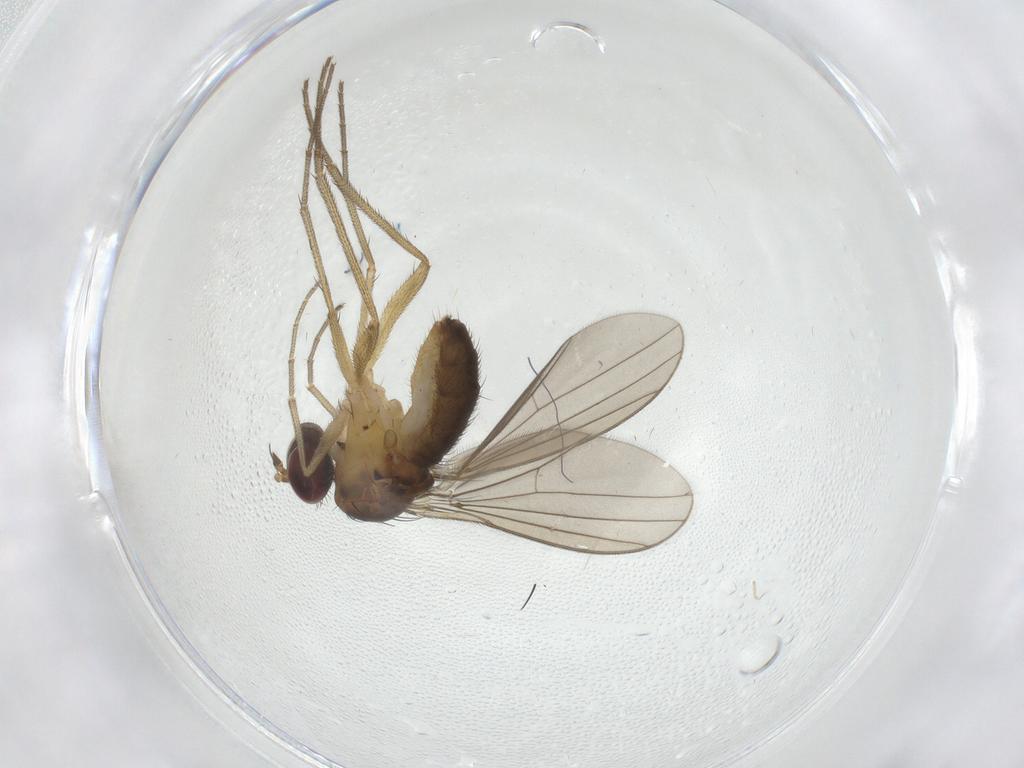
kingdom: Animalia
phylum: Arthropoda
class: Insecta
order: Diptera
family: Dolichopodidae
